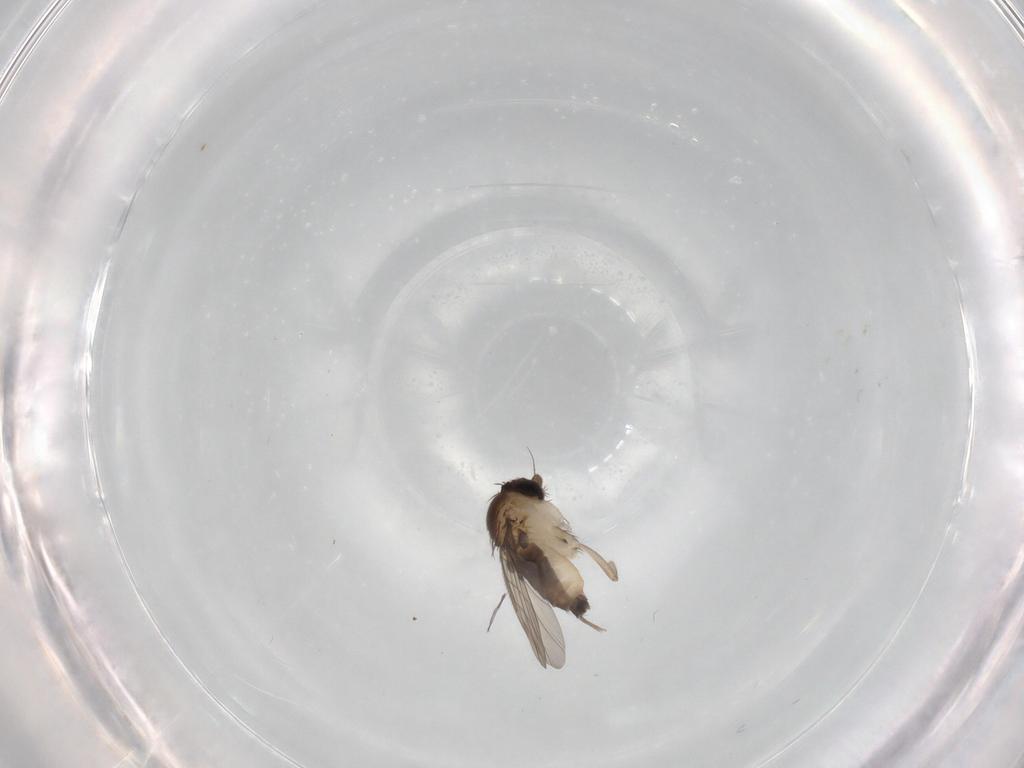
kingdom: Animalia
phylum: Arthropoda
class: Insecta
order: Diptera
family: Phoridae
